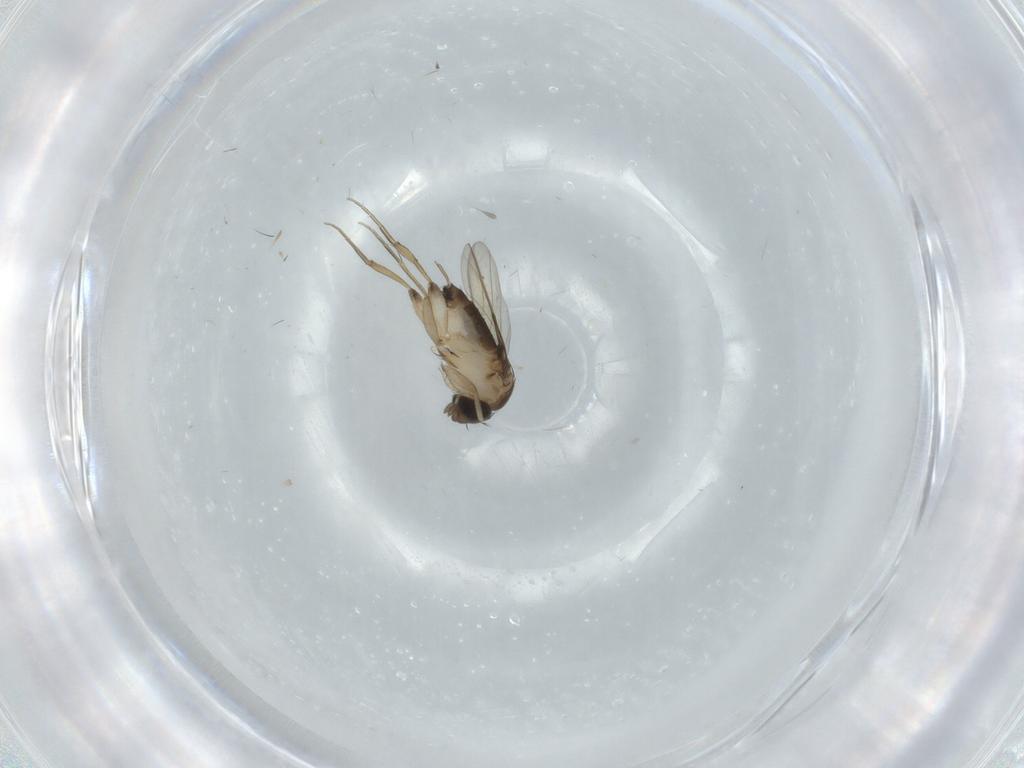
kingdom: Animalia
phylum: Arthropoda
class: Insecta
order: Diptera
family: Phoridae
